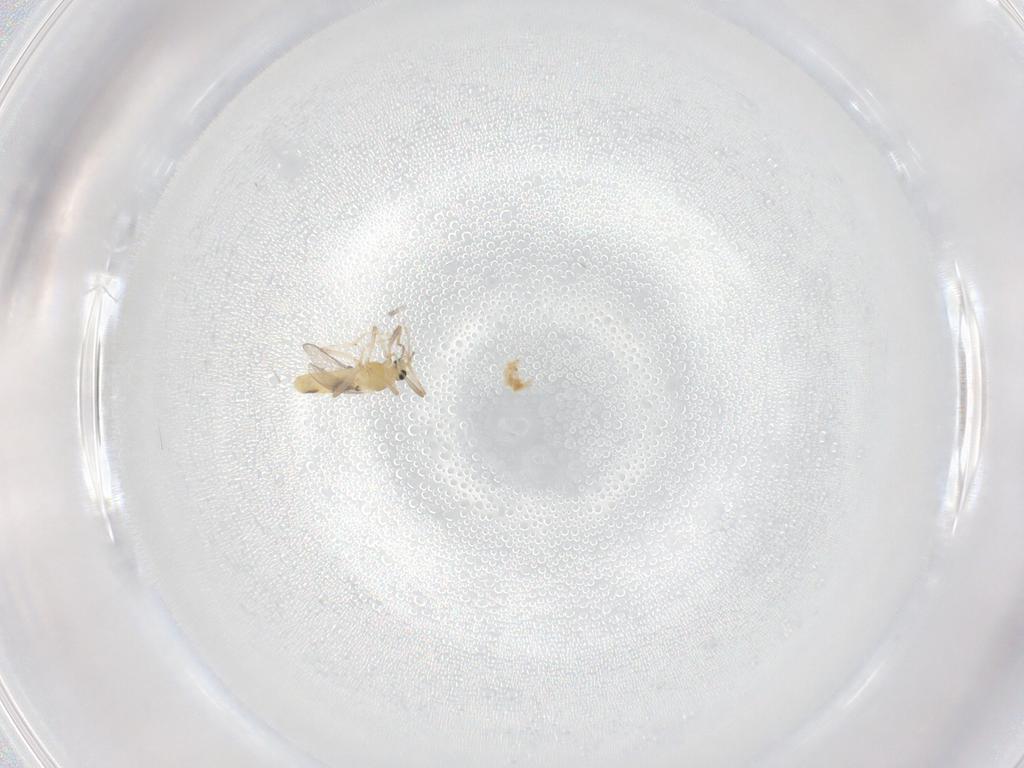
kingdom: Animalia
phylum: Arthropoda
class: Insecta
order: Diptera
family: Chironomidae
